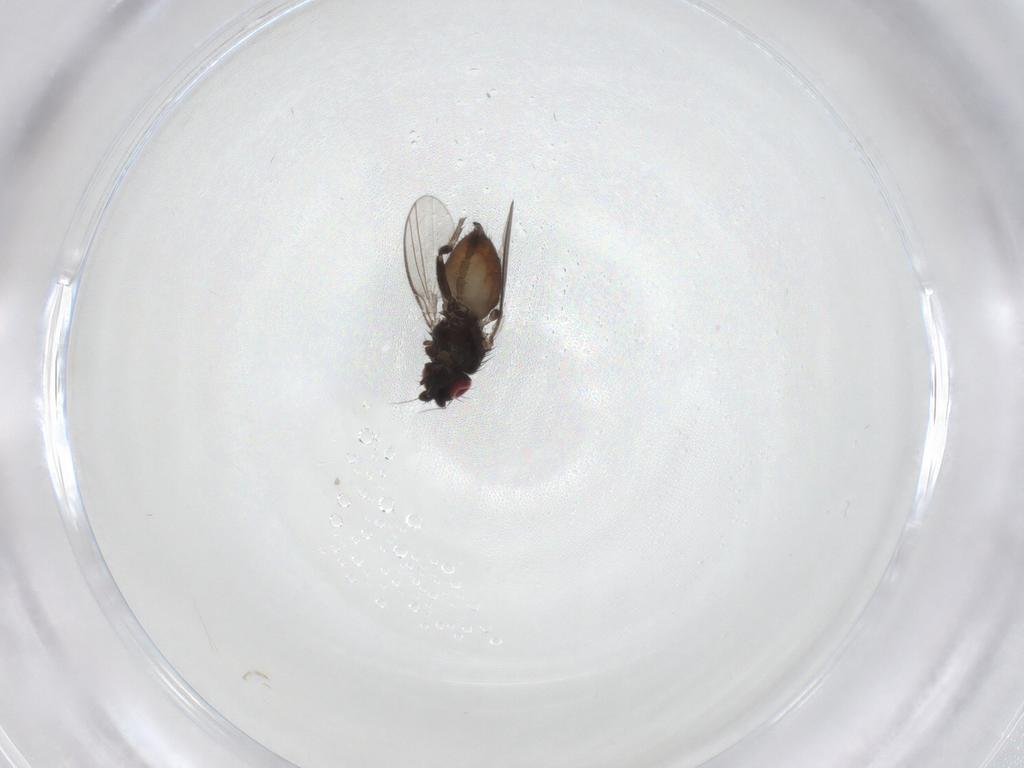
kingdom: Animalia
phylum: Arthropoda
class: Insecta
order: Diptera
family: Milichiidae
